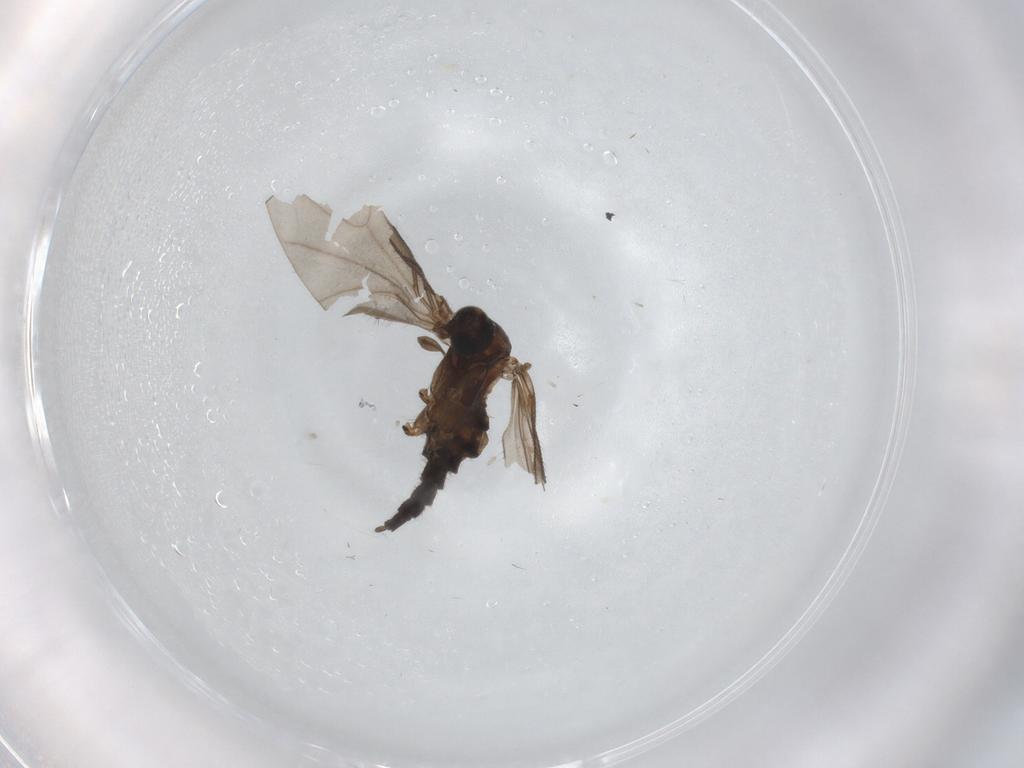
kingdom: Animalia
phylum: Arthropoda
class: Insecta
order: Diptera
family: Sciaridae
